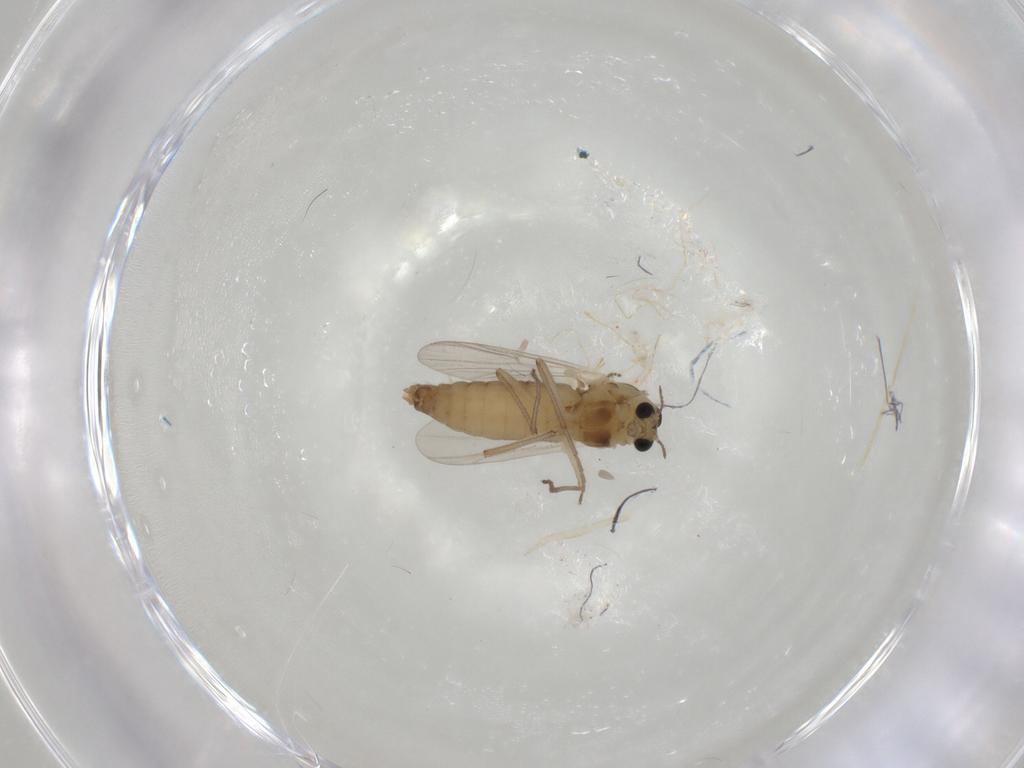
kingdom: Animalia
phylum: Arthropoda
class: Insecta
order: Diptera
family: Chironomidae
